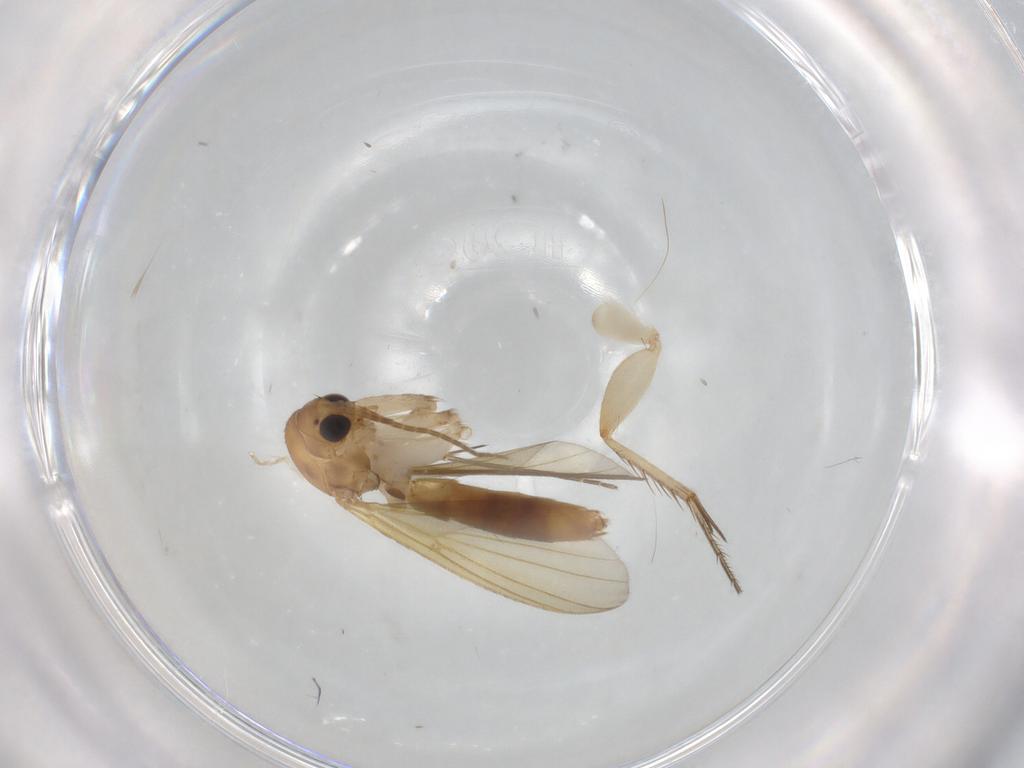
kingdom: Animalia
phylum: Arthropoda
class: Insecta
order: Diptera
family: Mycetophilidae
